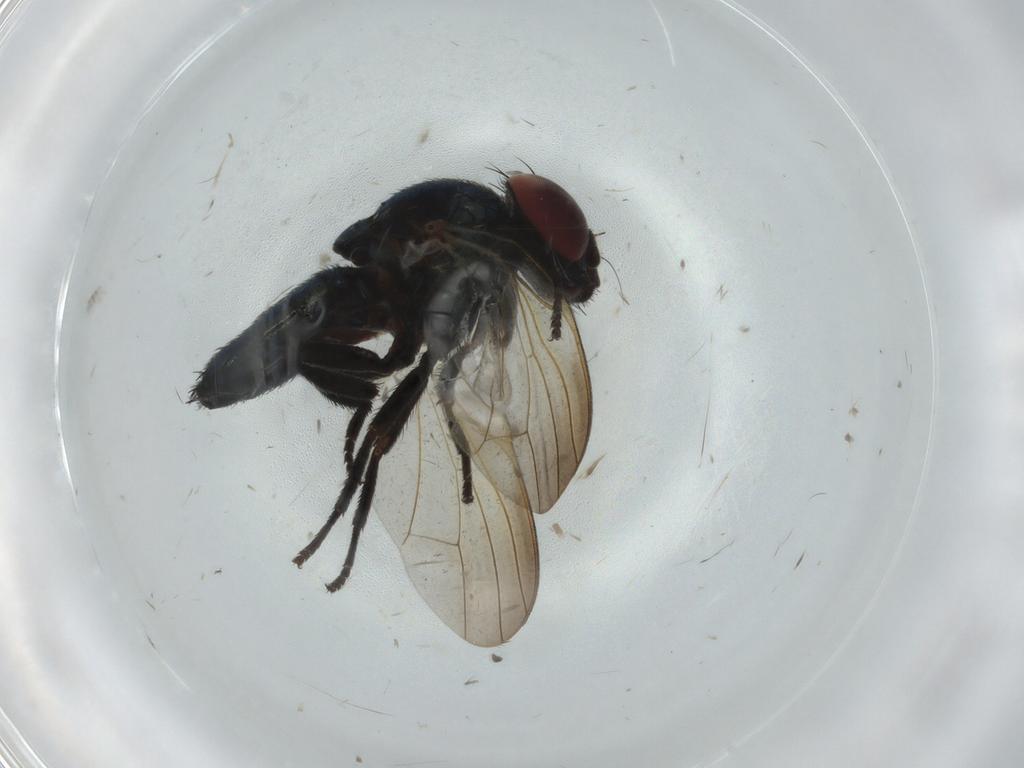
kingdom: Animalia
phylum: Arthropoda
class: Insecta
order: Diptera
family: Lonchaeidae
